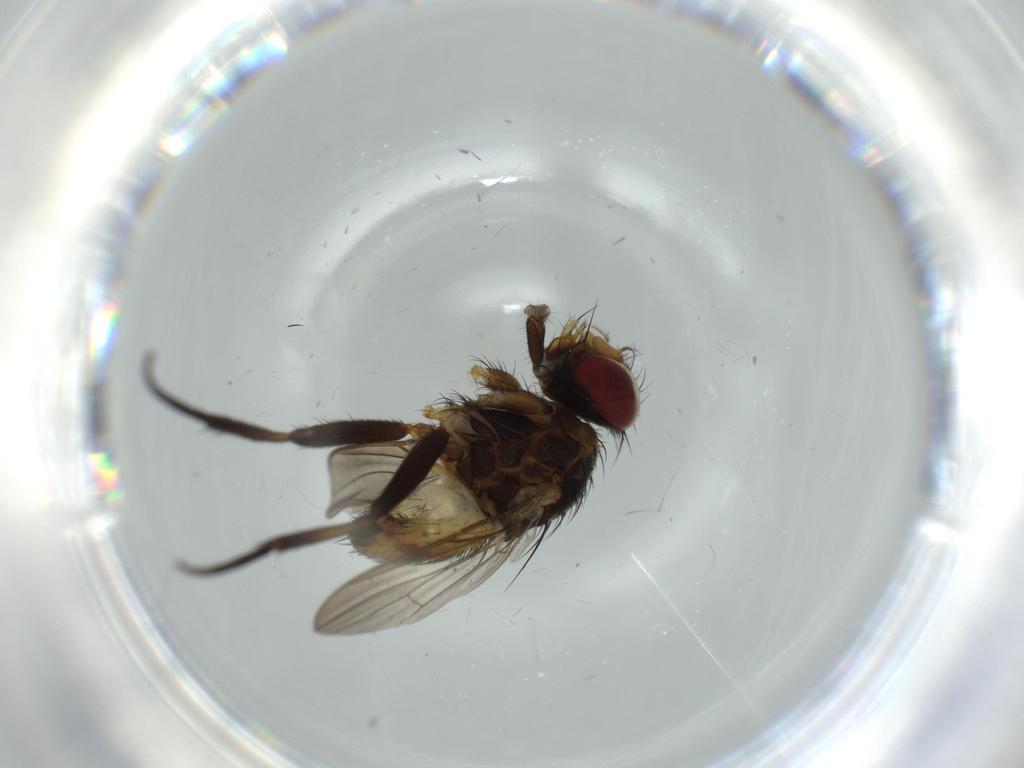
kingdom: Animalia
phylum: Arthropoda
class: Insecta
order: Diptera
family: Anthomyiidae
